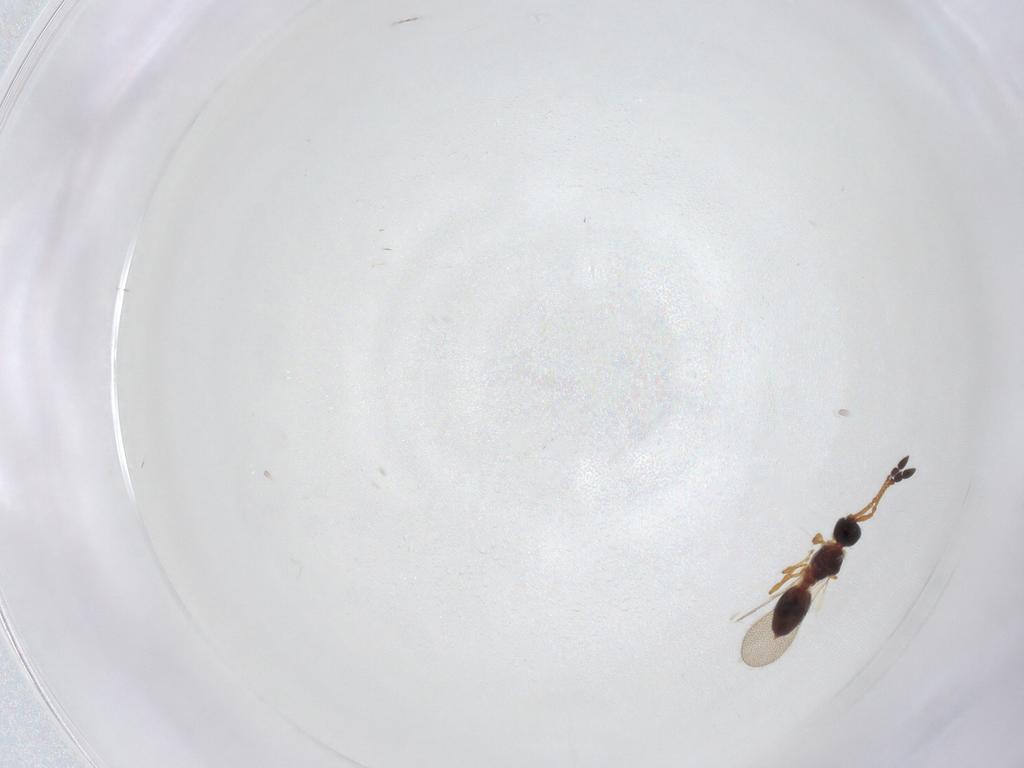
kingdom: Animalia
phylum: Arthropoda
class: Insecta
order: Hymenoptera
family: Diapriidae
